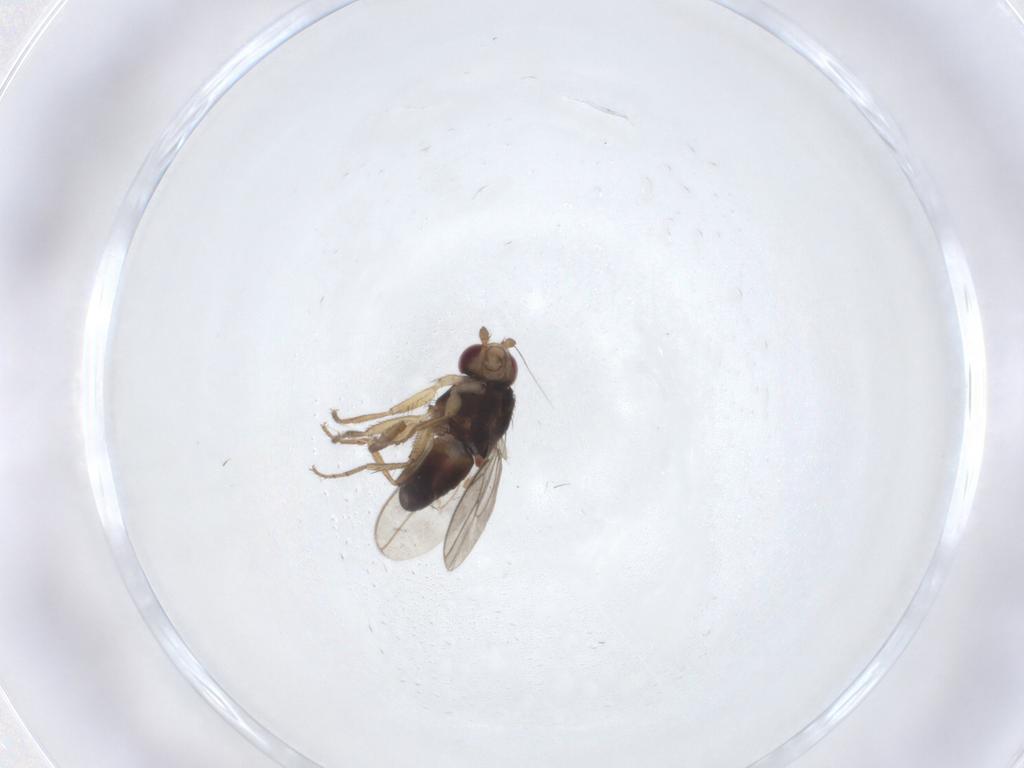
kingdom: Animalia
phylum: Arthropoda
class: Insecta
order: Diptera
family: Sphaeroceridae
